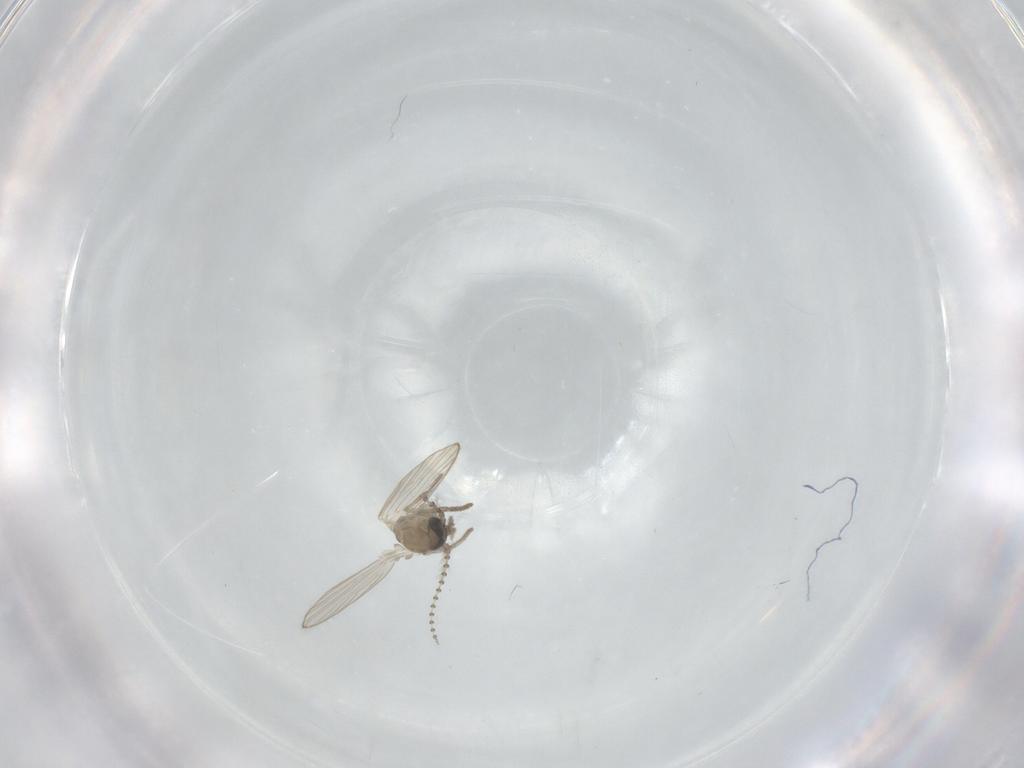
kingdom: Animalia
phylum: Arthropoda
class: Insecta
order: Diptera
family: Psychodidae
